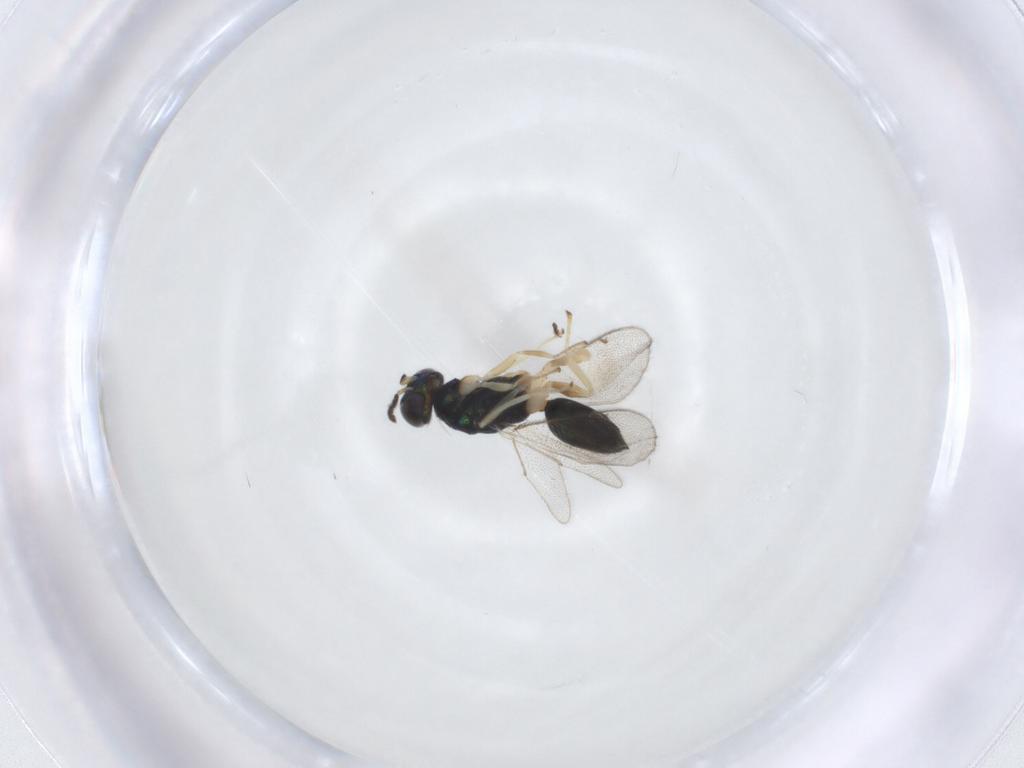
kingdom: Animalia
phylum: Arthropoda
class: Insecta
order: Hymenoptera
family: Eulophidae
